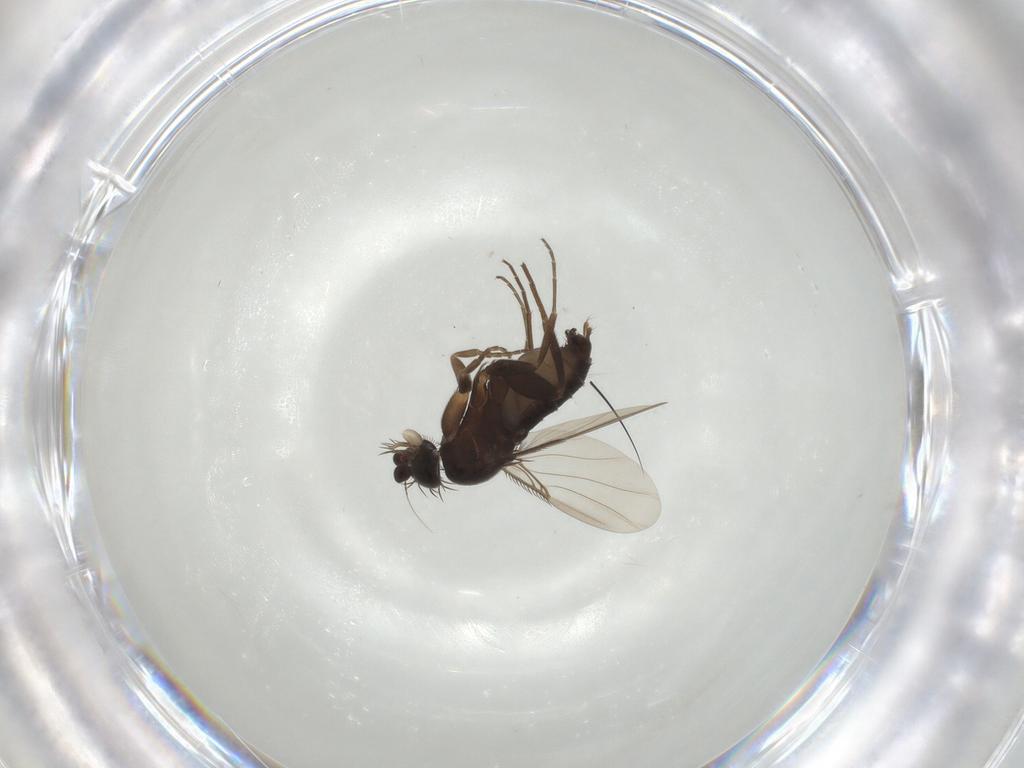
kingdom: Animalia
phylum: Arthropoda
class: Insecta
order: Diptera
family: Phoridae
